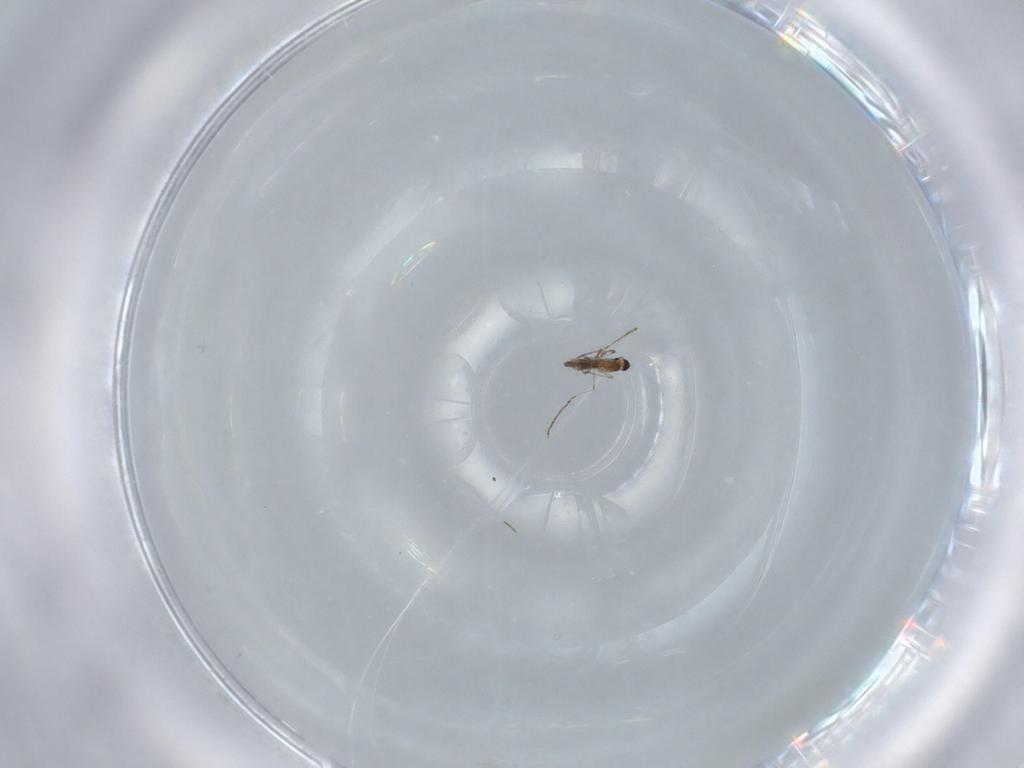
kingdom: Animalia
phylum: Arthropoda
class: Insecta
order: Diptera
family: Cecidomyiidae
